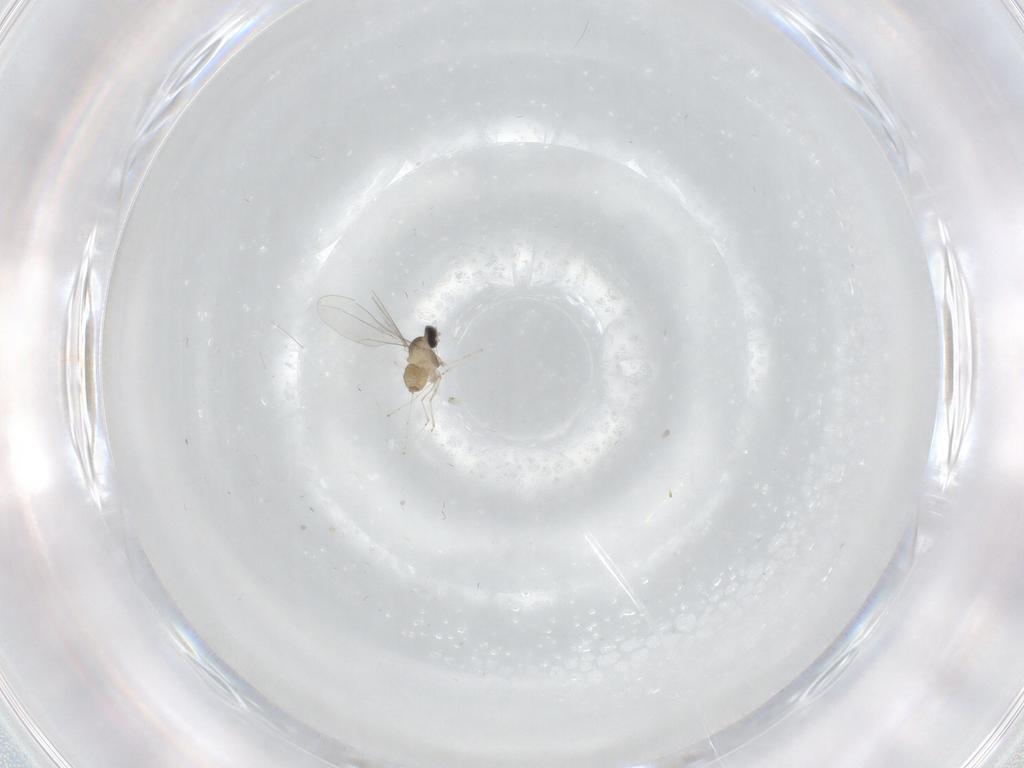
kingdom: Animalia
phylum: Arthropoda
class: Insecta
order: Diptera
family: Cecidomyiidae
